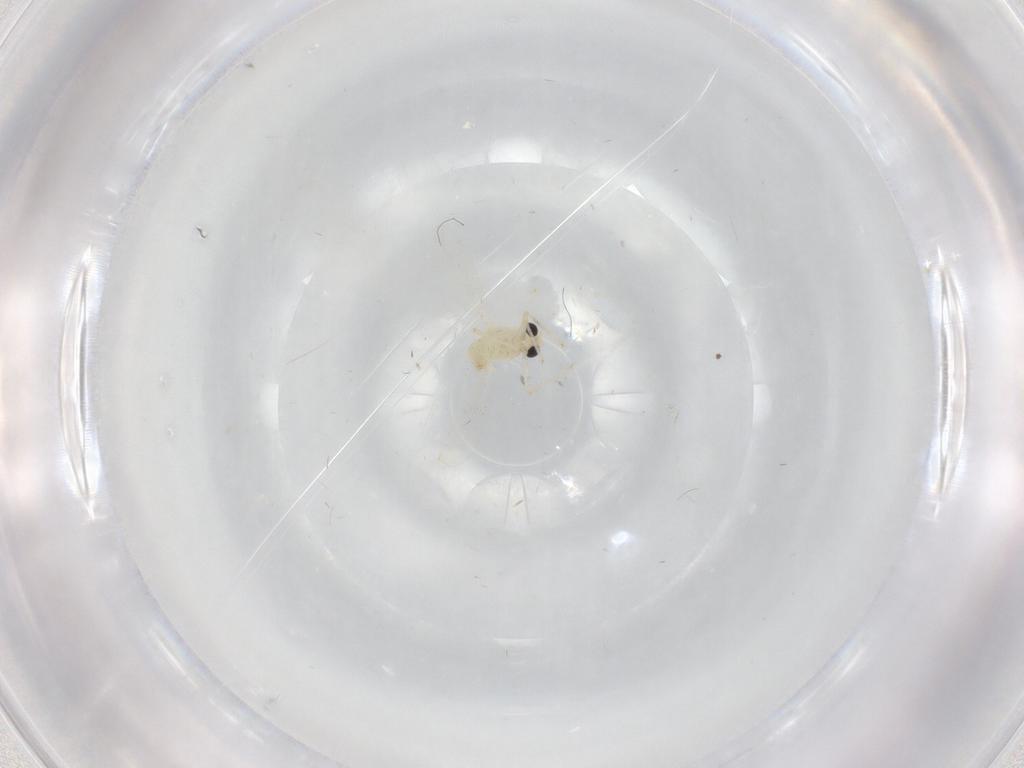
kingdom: Animalia
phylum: Arthropoda
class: Insecta
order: Diptera
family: Chironomidae
